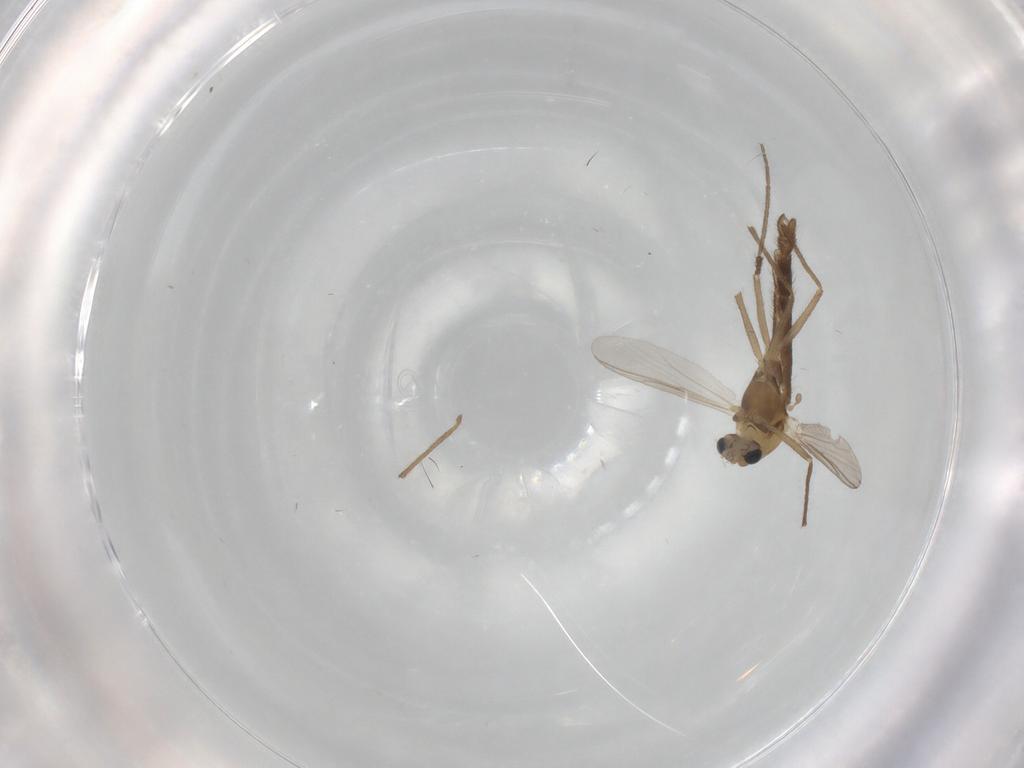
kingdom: Animalia
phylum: Arthropoda
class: Insecta
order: Diptera
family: Chironomidae
